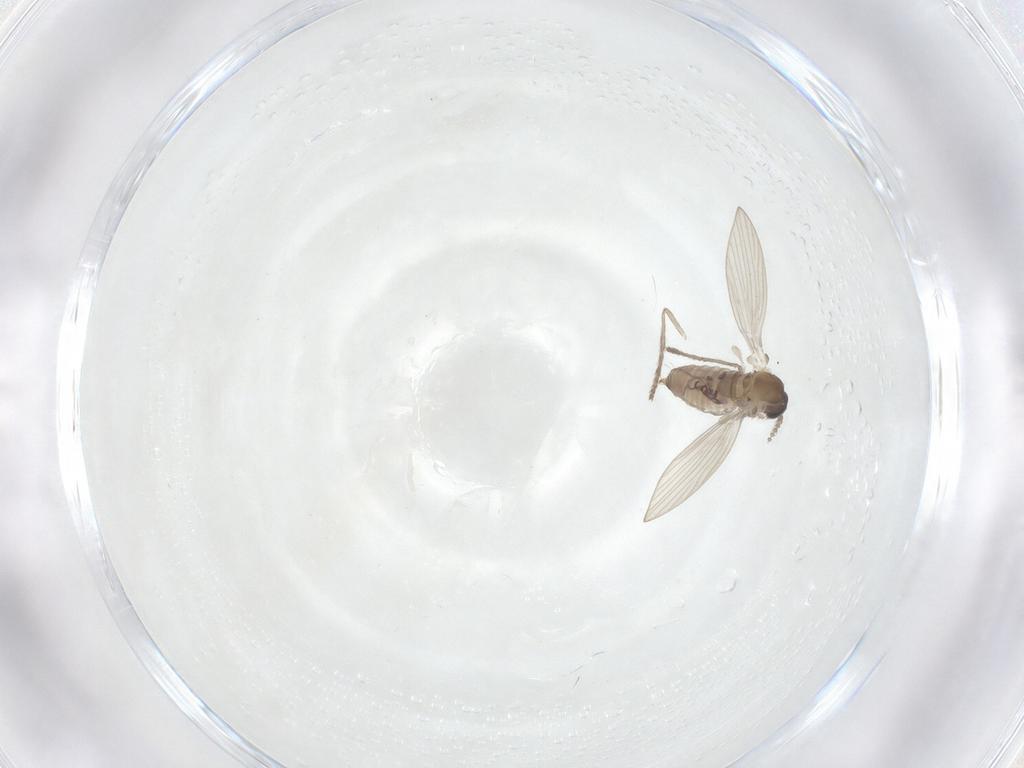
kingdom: Animalia
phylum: Arthropoda
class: Insecta
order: Diptera
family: Psychodidae
